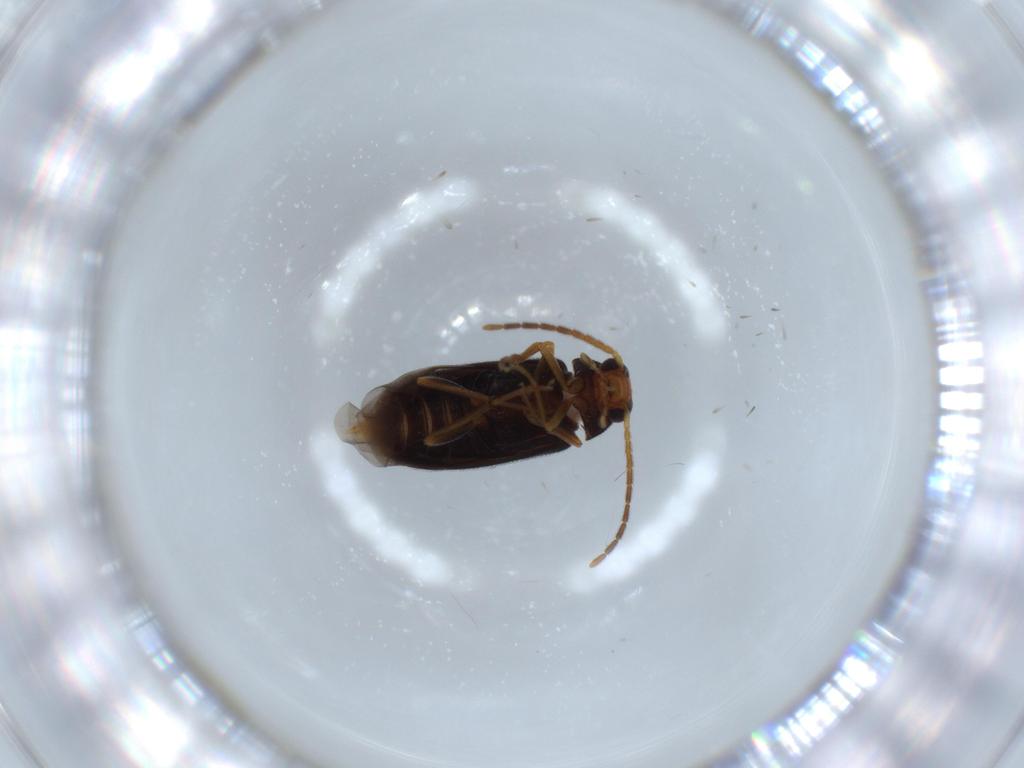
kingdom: Animalia
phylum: Arthropoda
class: Insecta
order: Coleoptera
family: Melandryidae
